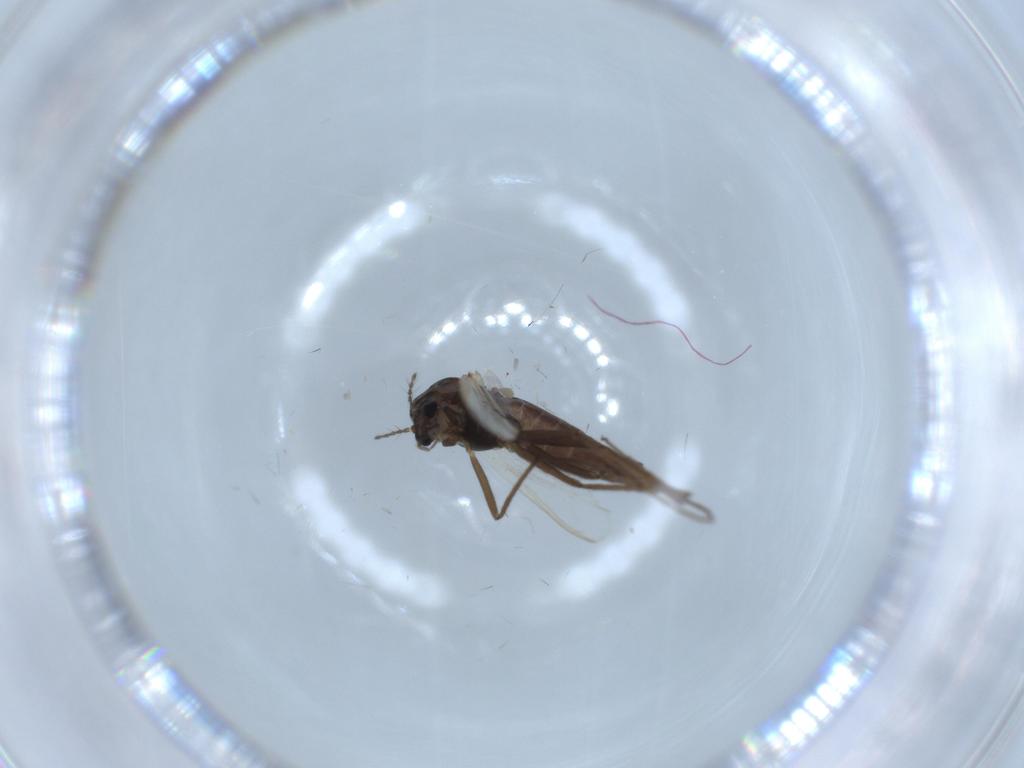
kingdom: Animalia
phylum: Arthropoda
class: Insecta
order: Diptera
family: Chironomidae
